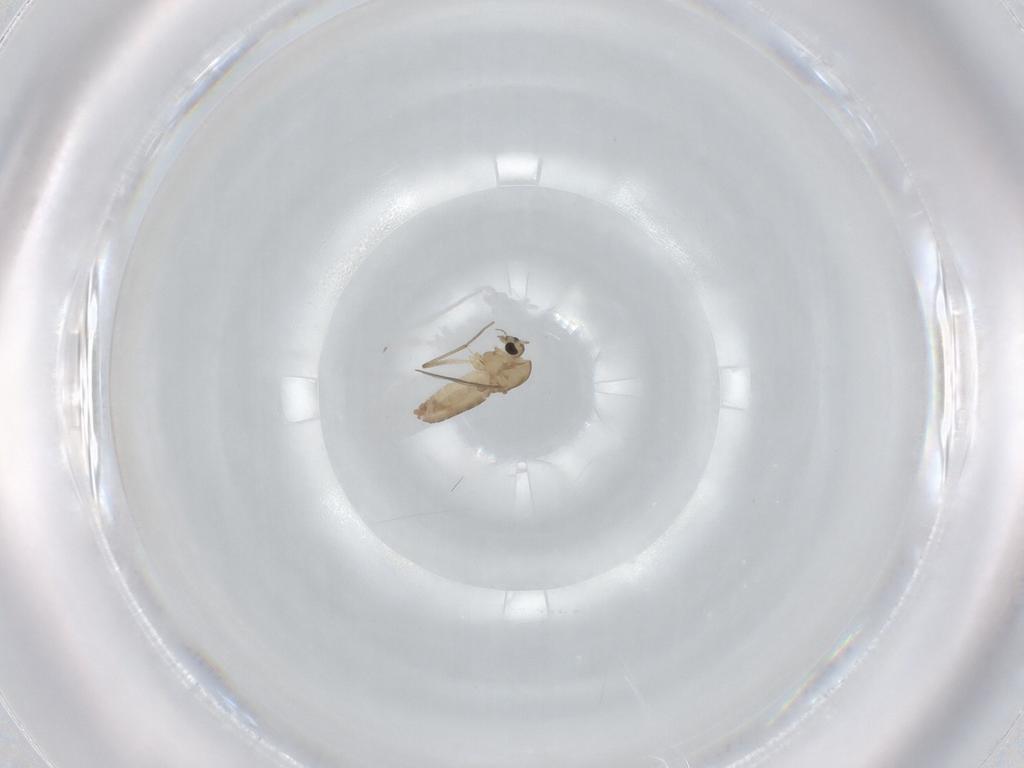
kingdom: Animalia
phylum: Arthropoda
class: Insecta
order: Diptera
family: Chironomidae
